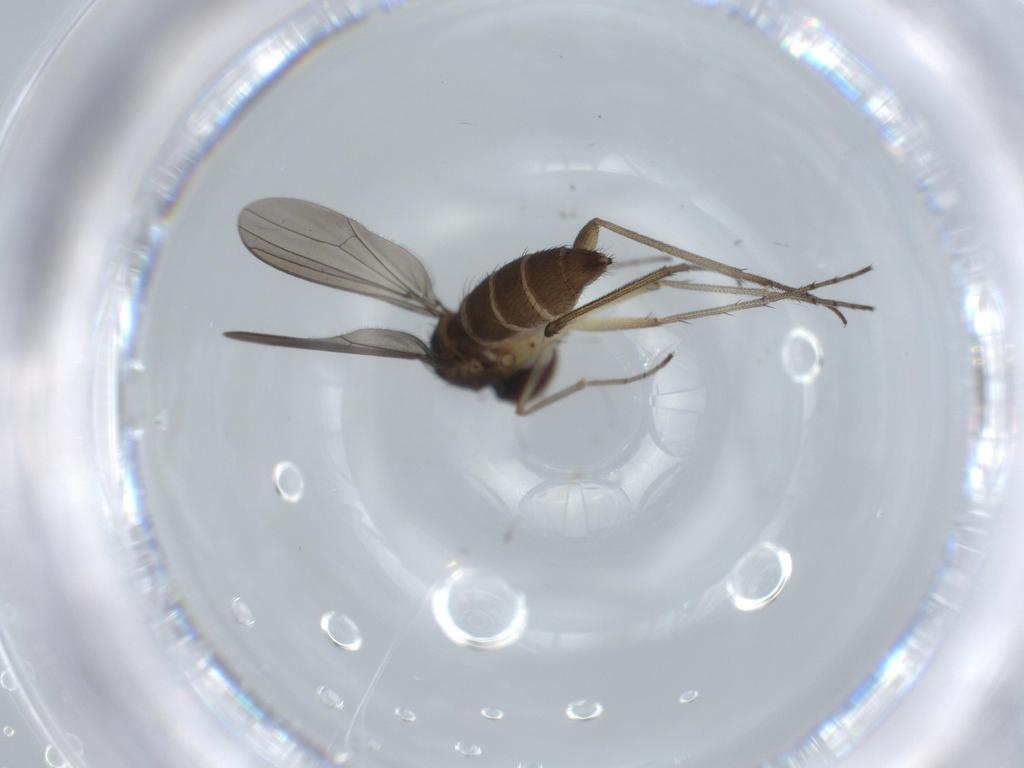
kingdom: Animalia
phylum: Arthropoda
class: Insecta
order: Diptera
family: Dolichopodidae
